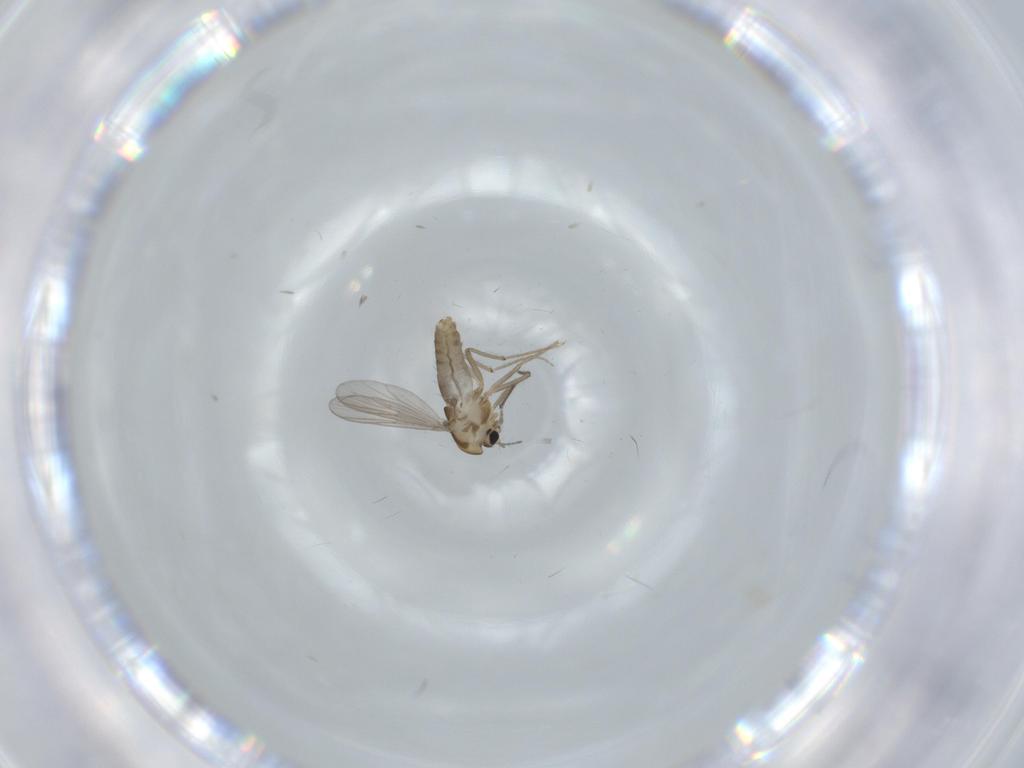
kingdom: Animalia
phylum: Arthropoda
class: Insecta
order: Diptera
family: Chironomidae
